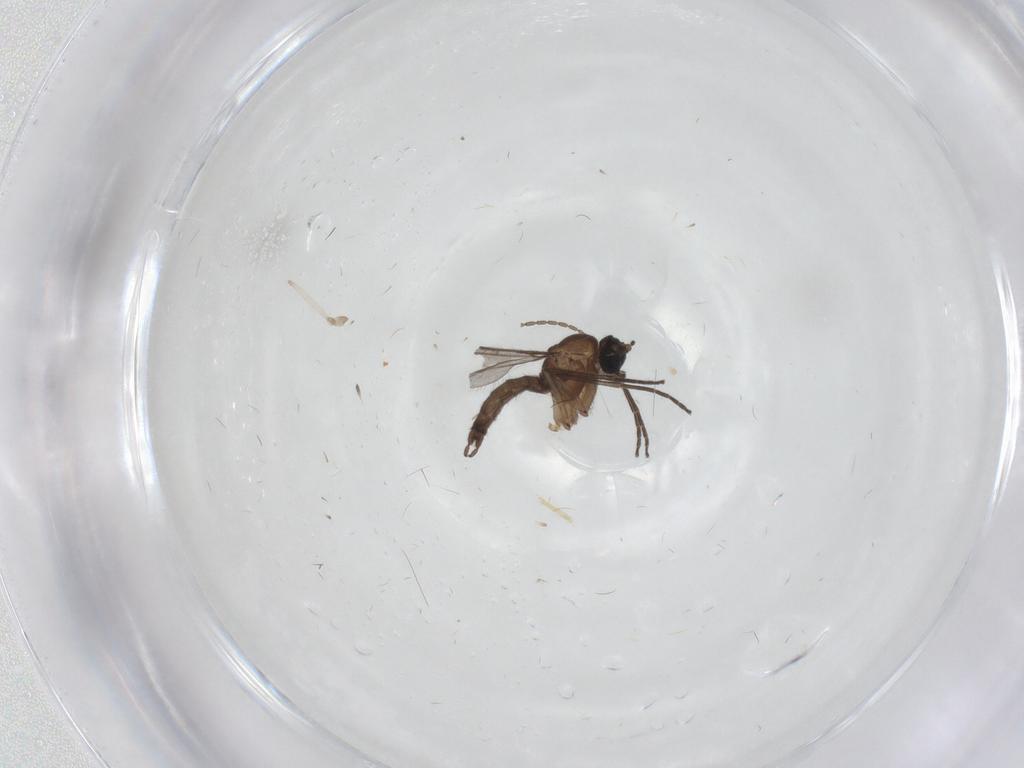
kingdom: Animalia
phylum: Arthropoda
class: Insecta
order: Diptera
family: Sciaridae
